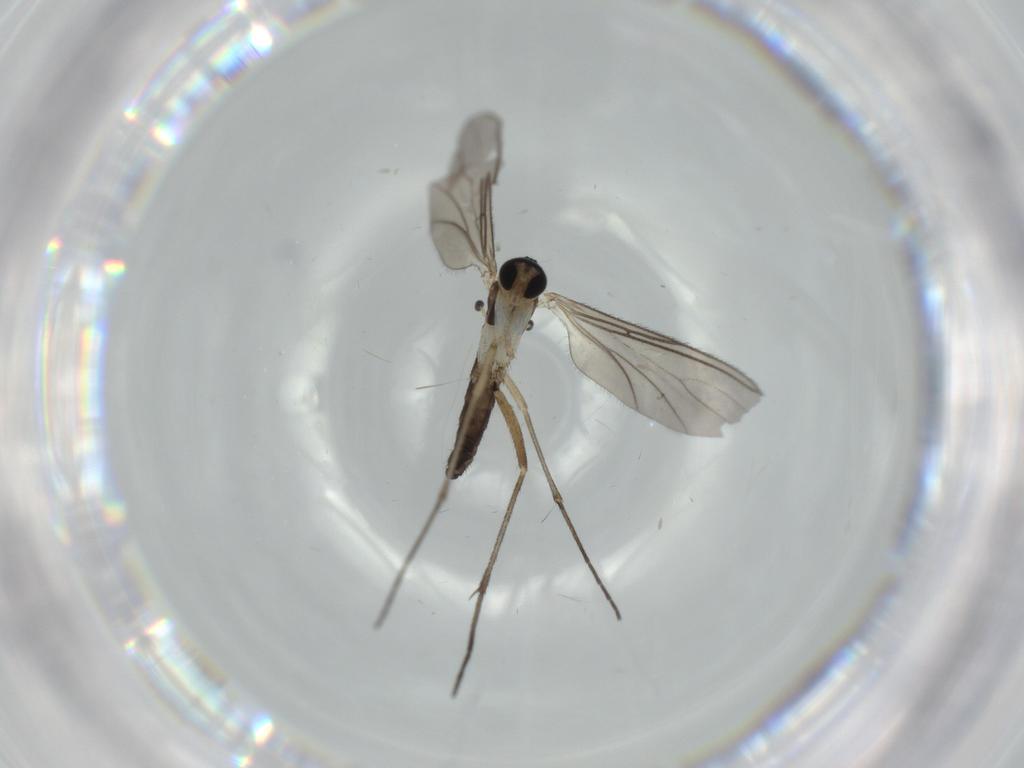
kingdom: Animalia
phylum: Arthropoda
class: Insecta
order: Diptera
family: Sciaridae
